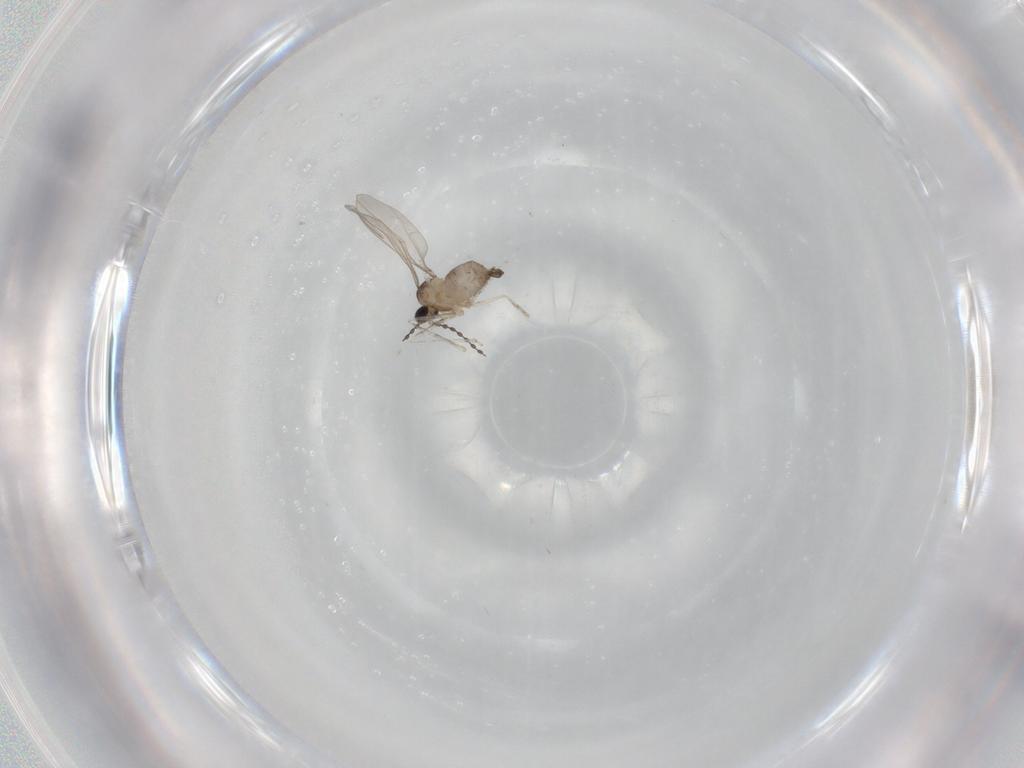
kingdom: Animalia
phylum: Arthropoda
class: Insecta
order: Diptera
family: Cecidomyiidae
